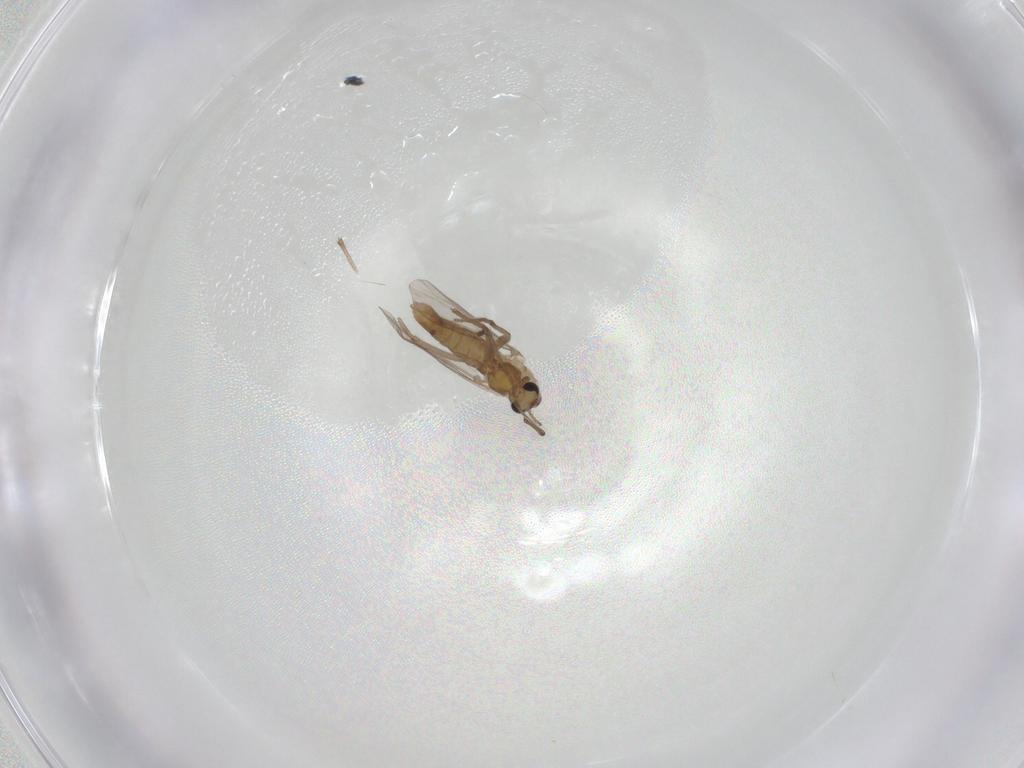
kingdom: Animalia
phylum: Arthropoda
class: Insecta
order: Diptera
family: Chironomidae
